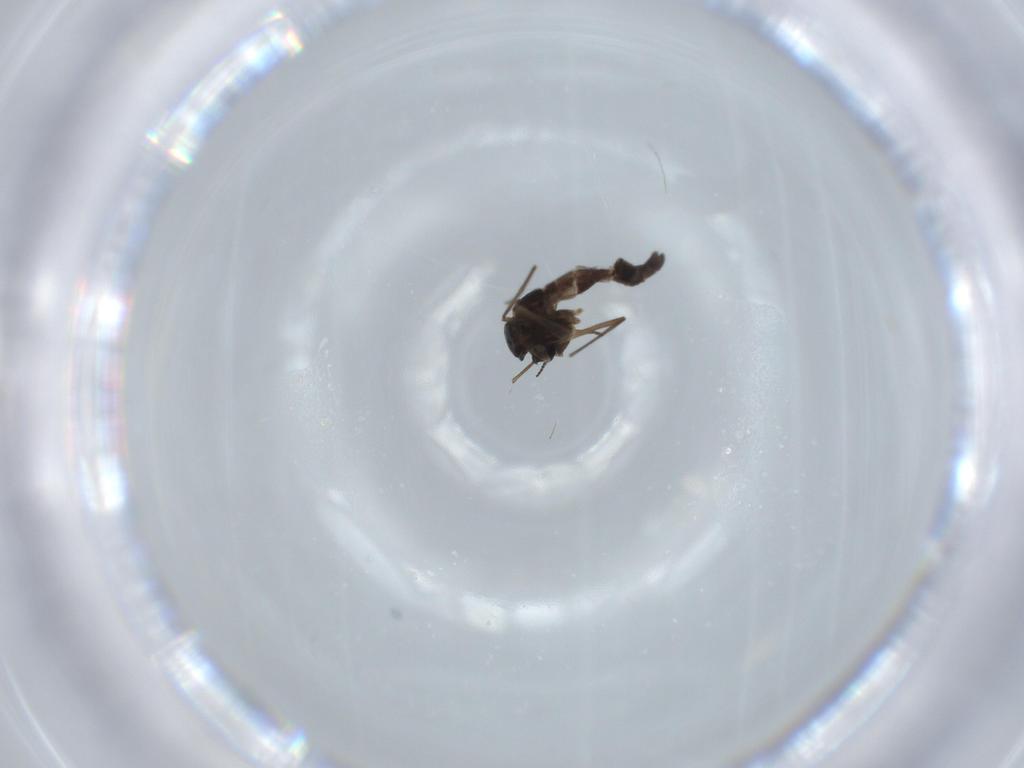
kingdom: Animalia
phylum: Arthropoda
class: Insecta
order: Diptera
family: Chironomidae
